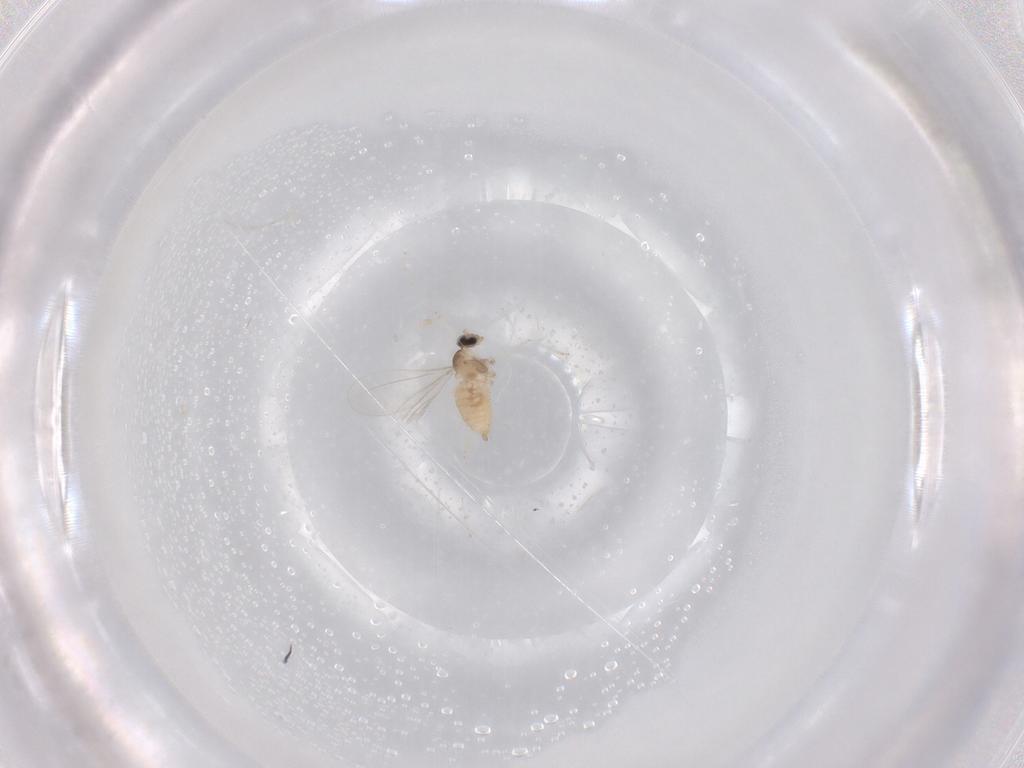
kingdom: Animalia
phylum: Arthropoda
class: Insecta
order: Diptera
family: Cecidomyiidae
